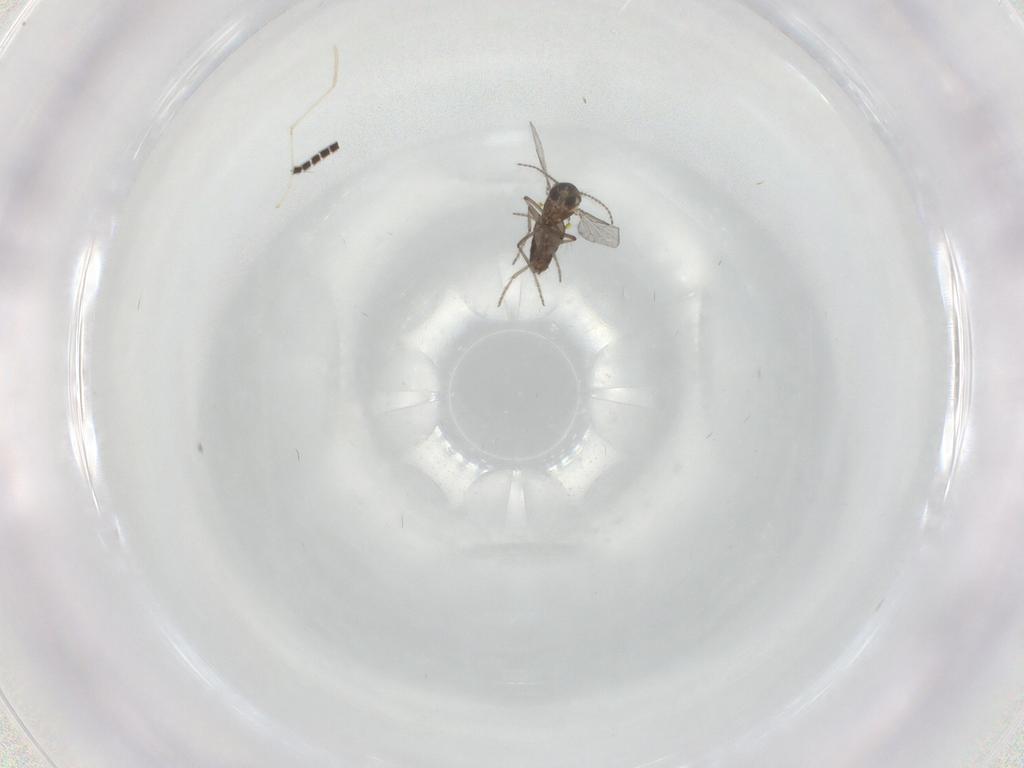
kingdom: Animalia
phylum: Arthropoda
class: Insecta
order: Diptera
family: Ceratopogonidae
